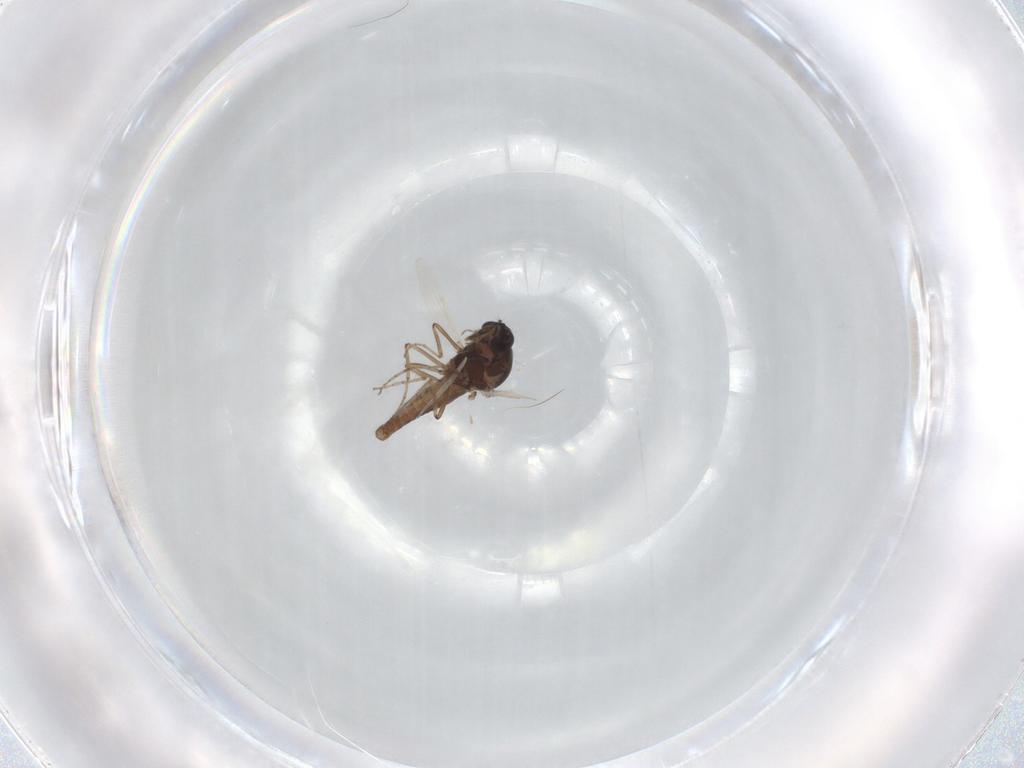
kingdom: Animalia
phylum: Arthropoda
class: Insecta
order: Diptera
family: Ceratopogonidae
